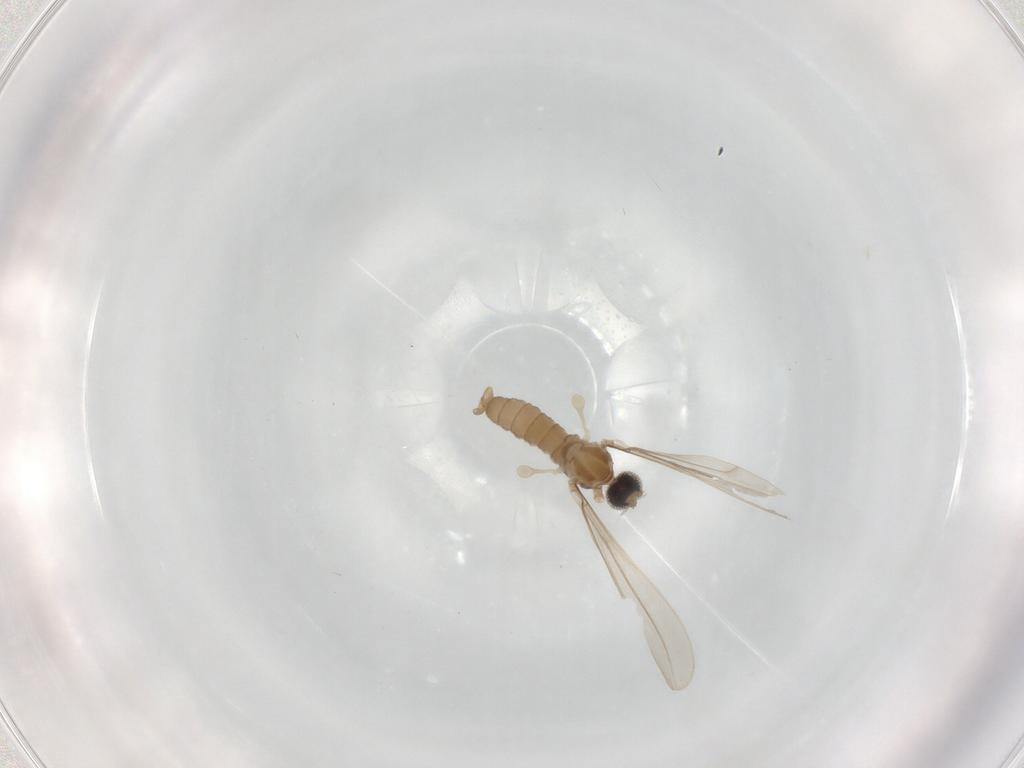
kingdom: Animalia
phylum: Arthropoda
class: Insecta
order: Diptera
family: Cecidomyiidae
